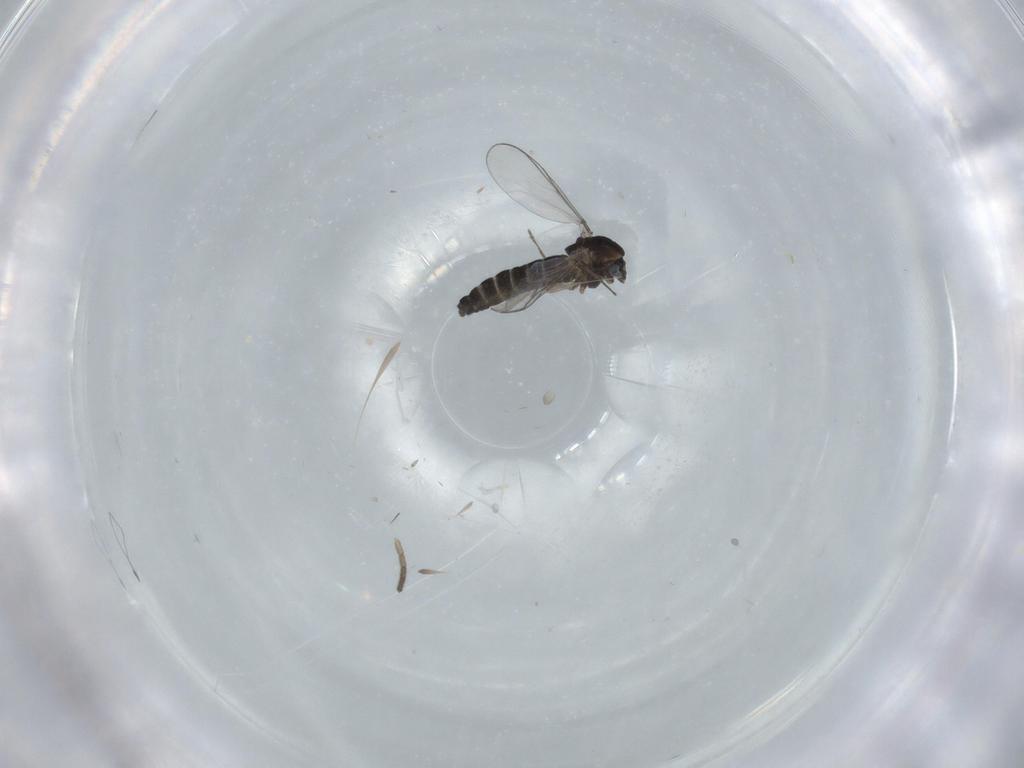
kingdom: Animalia
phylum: Arthropoda
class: Insecta
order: Diptera
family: Chironomidae
